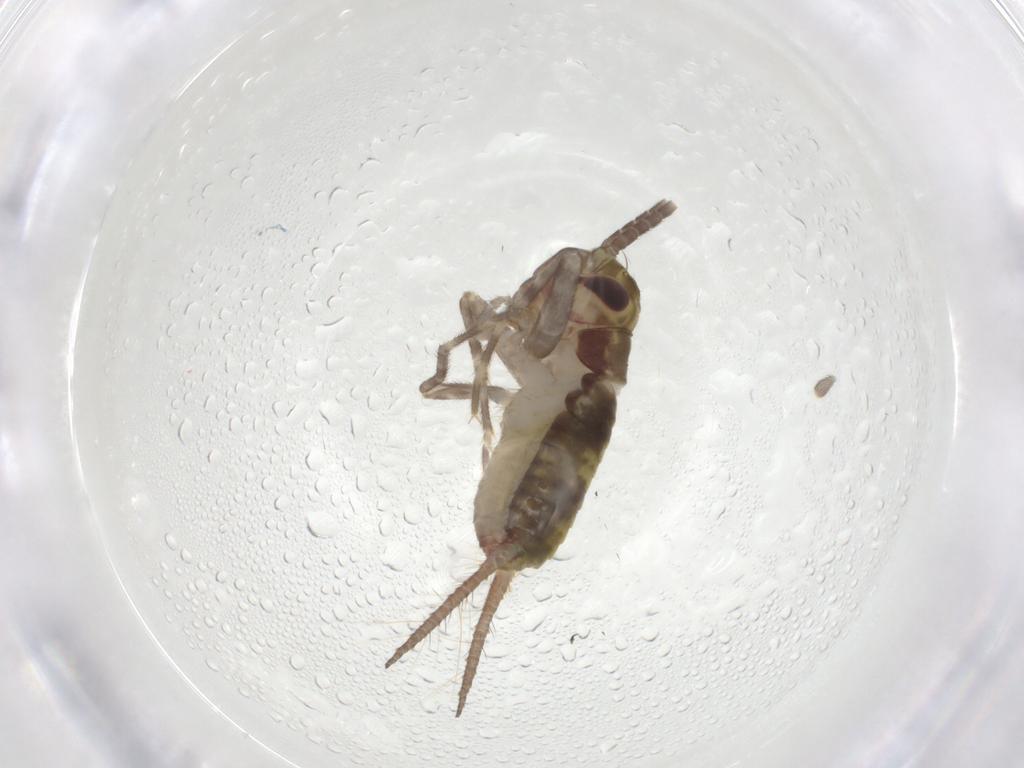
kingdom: Animalia
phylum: Arthropoda
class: Insecta
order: Orthoptera
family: Gryllidae
